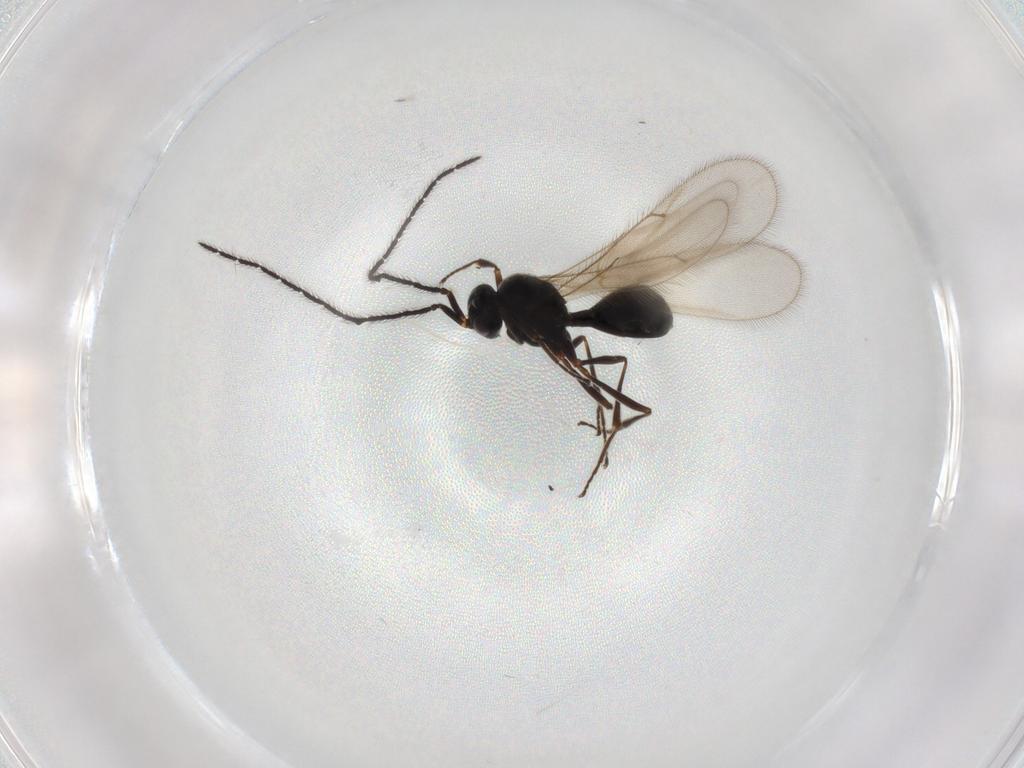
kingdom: Animalia
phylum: Arthropoda
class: Insecta
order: Hymenoptera
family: Scelionidae
